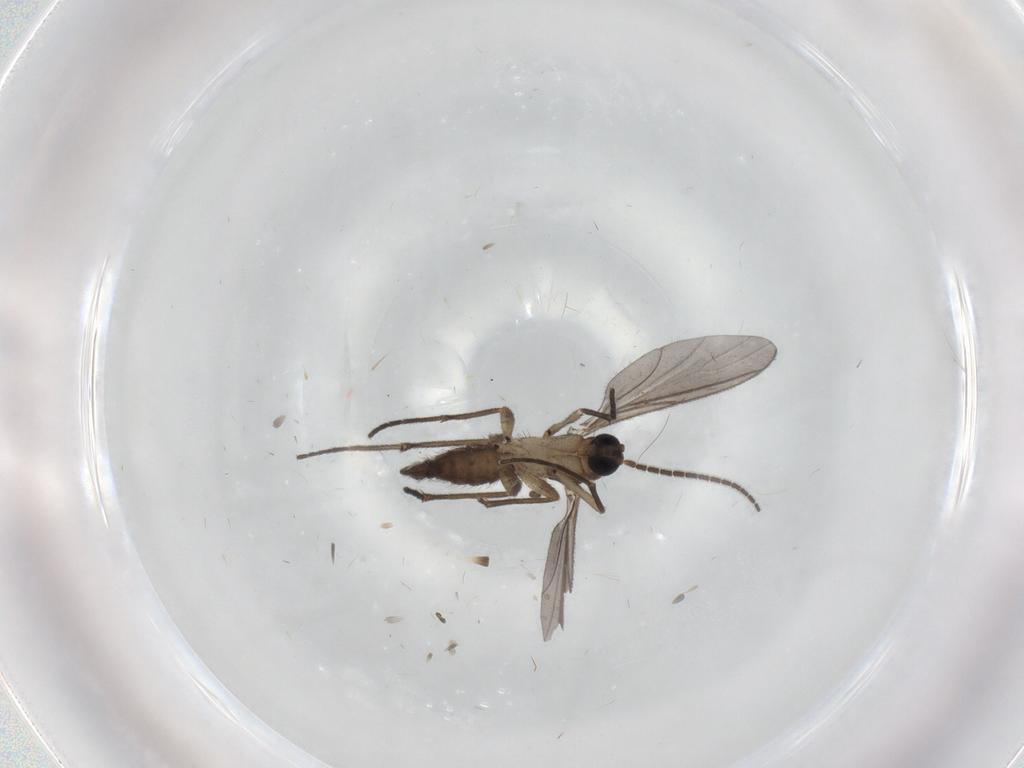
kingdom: Animalia
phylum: Arthropoda
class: Insecta
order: Diptera
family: Sciaridae
